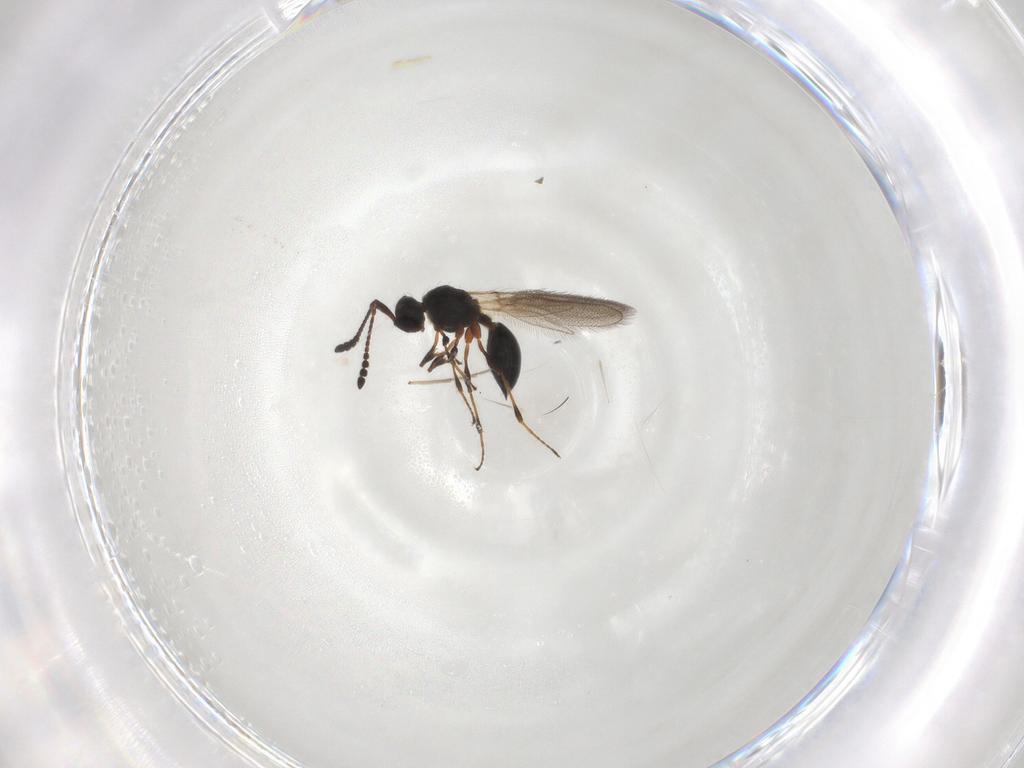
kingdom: Animalia
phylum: Arthropoda
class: Insecta
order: Hymenoptera
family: Diapriidae
